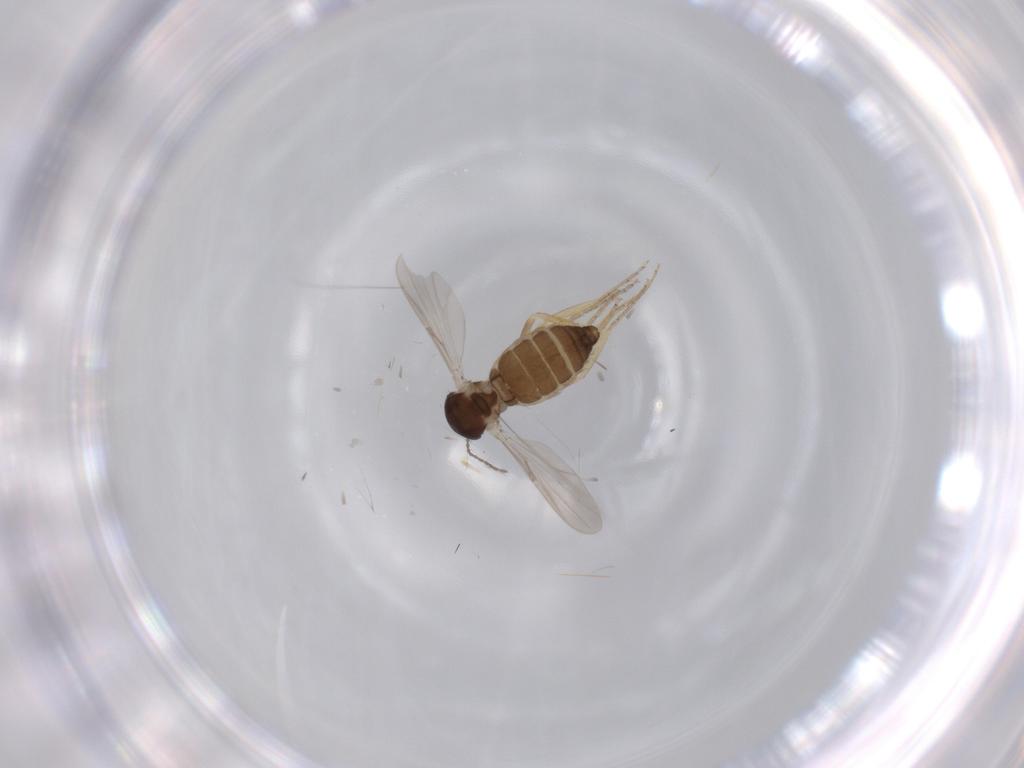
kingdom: Animalia
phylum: Arthropoda
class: Insecta
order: Diptera
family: Ceratopogonidae
